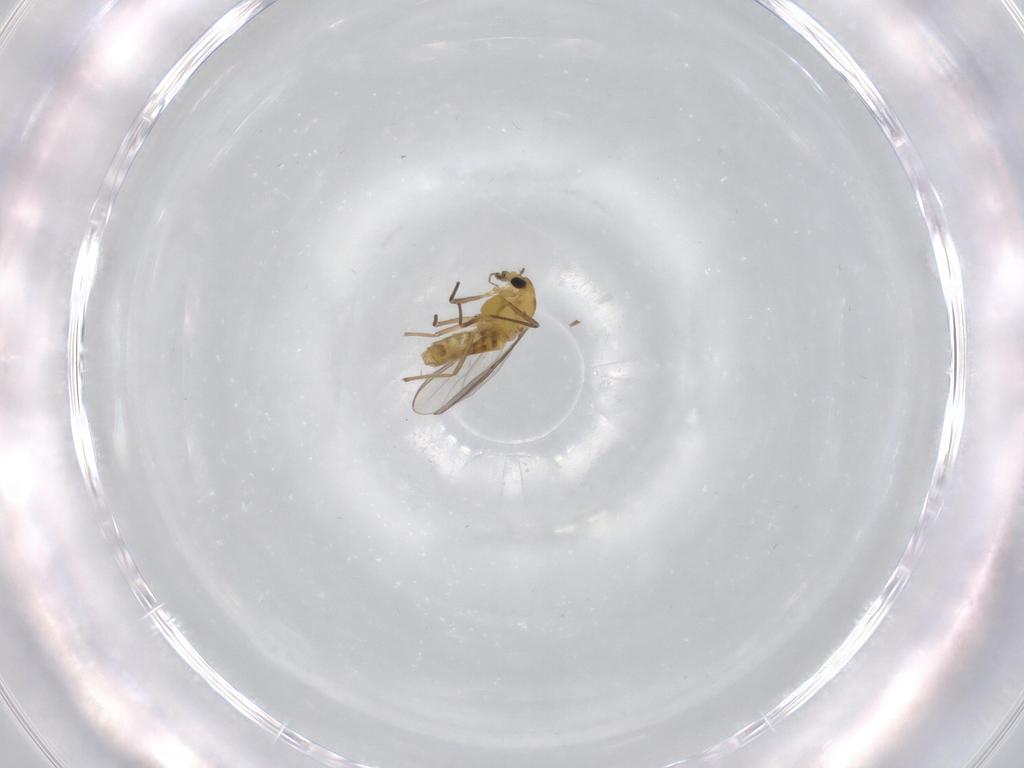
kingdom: Animalia
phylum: Arthropoda
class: Insecta
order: Diptera
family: Chironomidae
